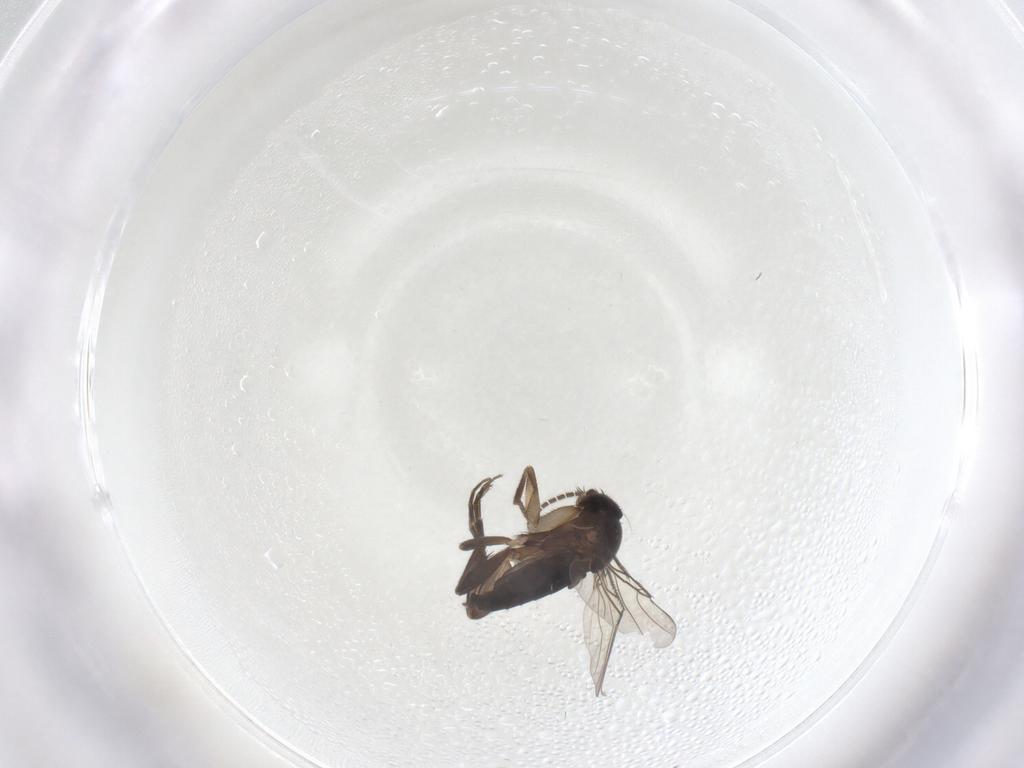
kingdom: Animalia
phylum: Arthropoda
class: Insecta
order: Diptera
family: Phoridae
